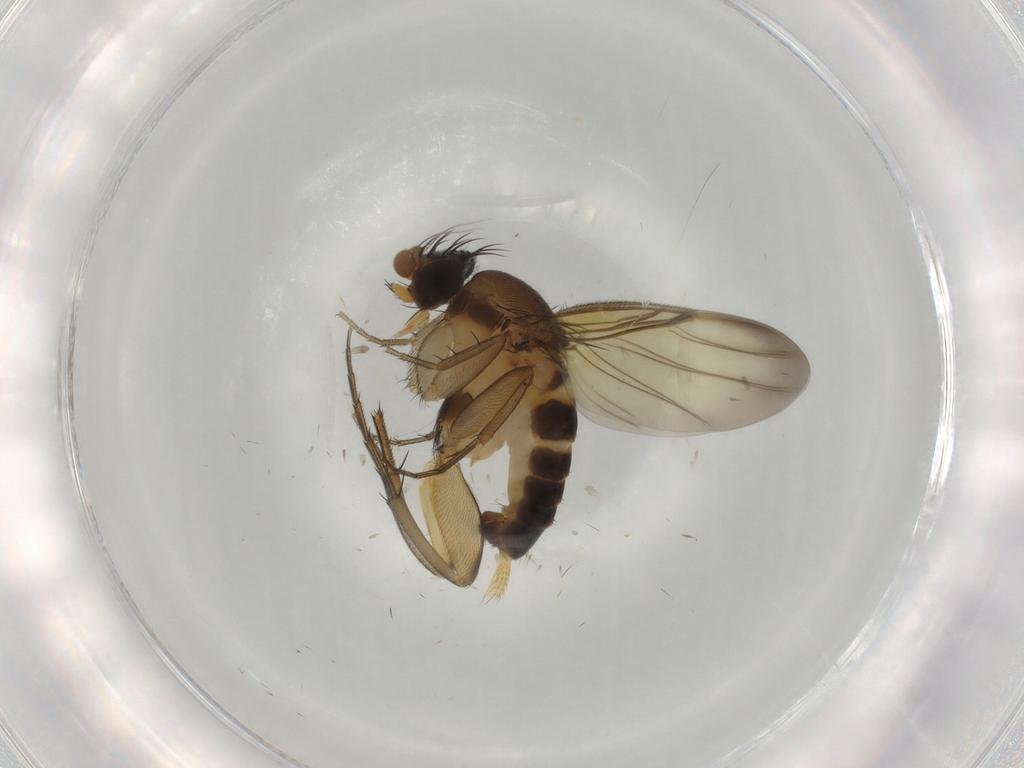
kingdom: Animalia
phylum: Arthropoda
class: Insecta
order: Diptera
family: Phoridae
